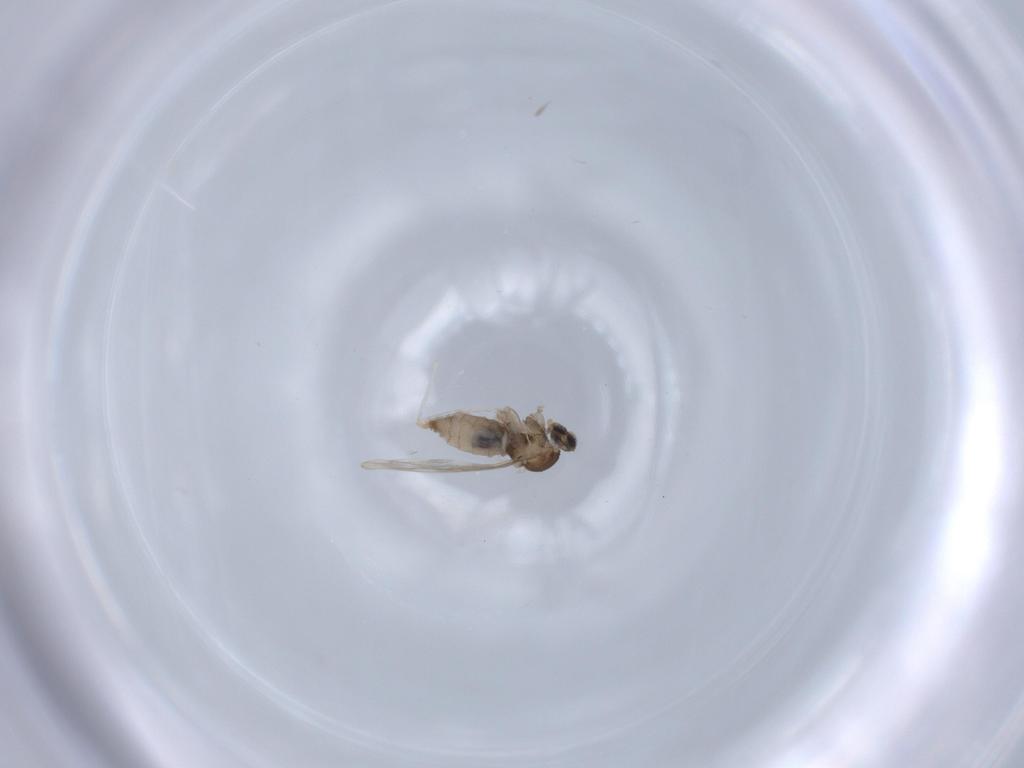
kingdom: Animalia
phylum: Arthropoda
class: Insecta
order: Diptera
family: Cecidomyiidae
